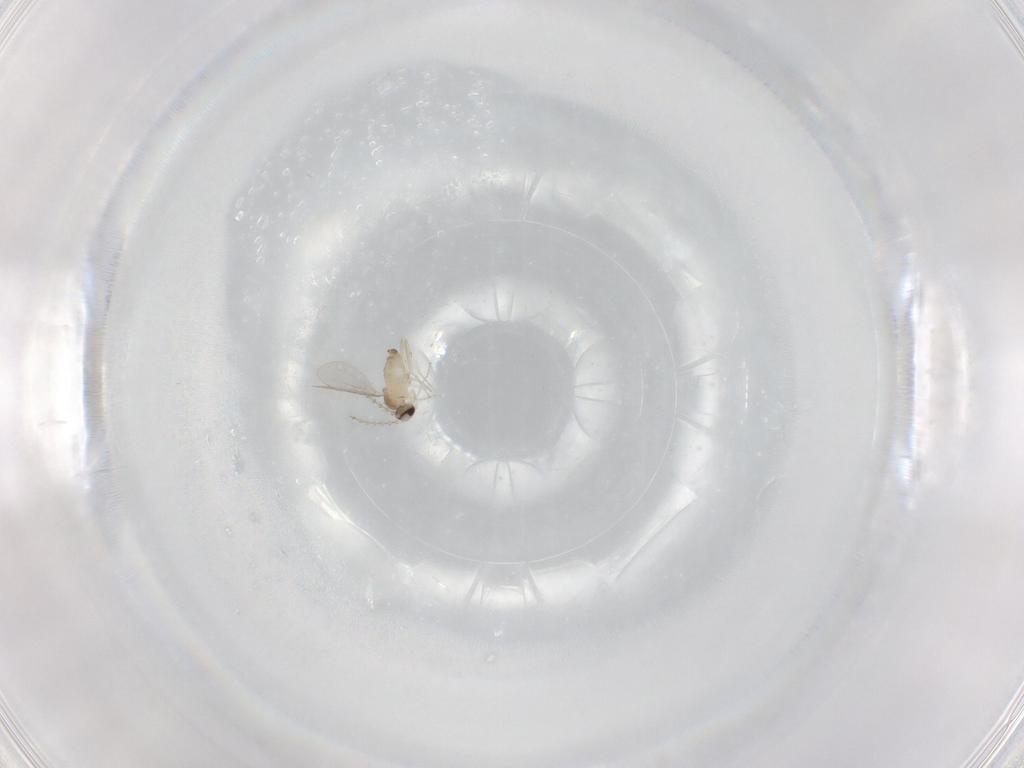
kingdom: Animalia
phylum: Arthropoda
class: Insecta
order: Diptera
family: Cecidomyiidae
